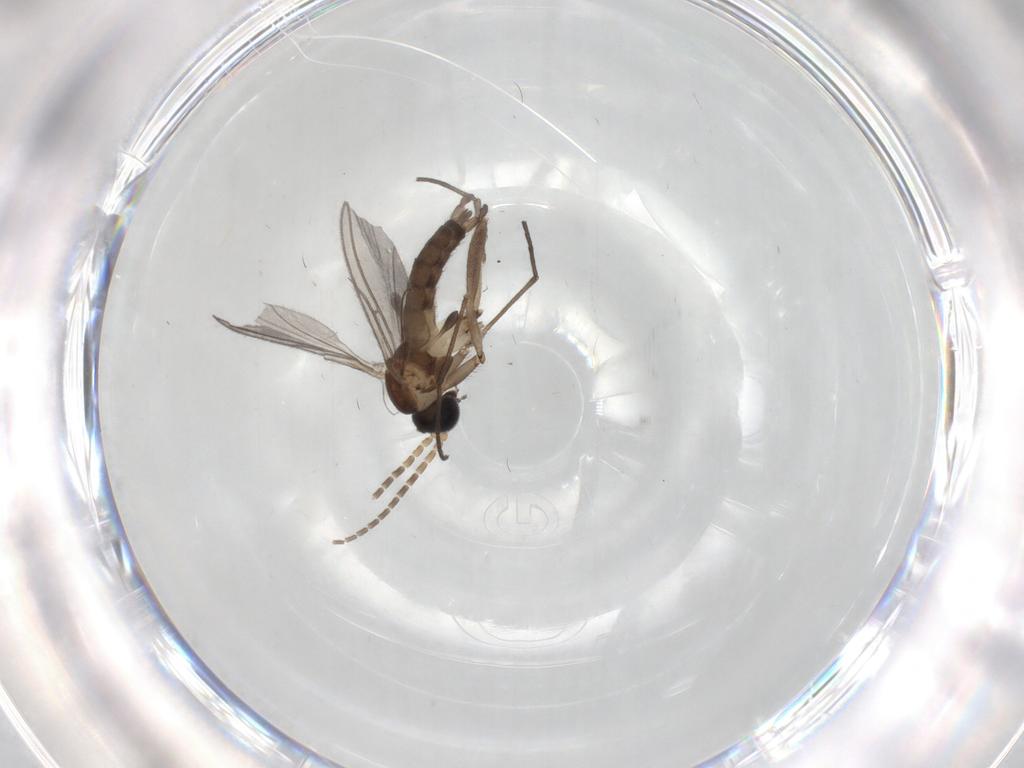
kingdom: Animalia
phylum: Arthropoda
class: Insecta
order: Diptera
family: Sciaridae
